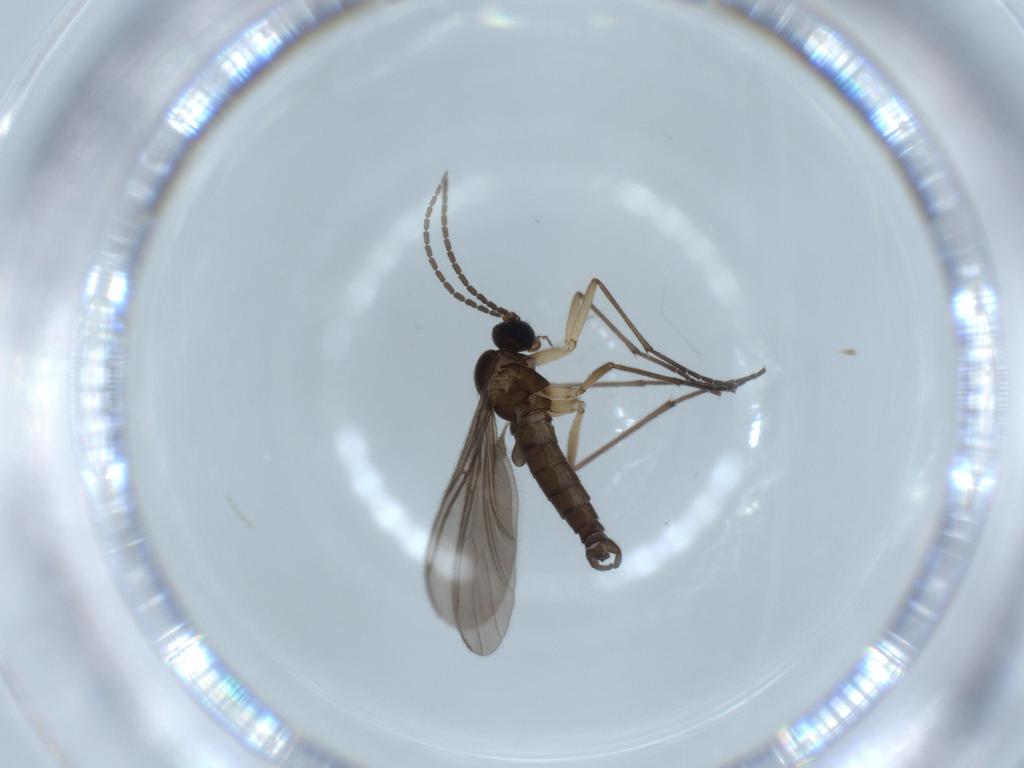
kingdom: Animalia
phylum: Arthropoda
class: Insecta
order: Diptera
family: Sciaridae
